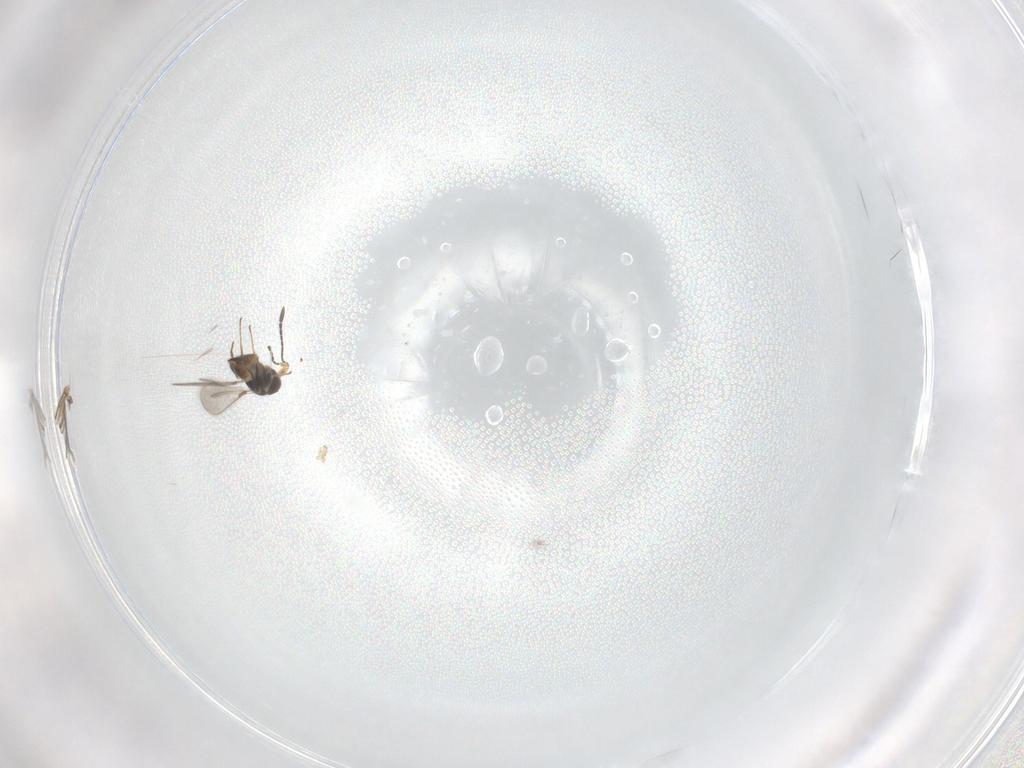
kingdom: Animalia
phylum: Arthropoda
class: Insecta
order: Hymenoptera
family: Mymaridae
